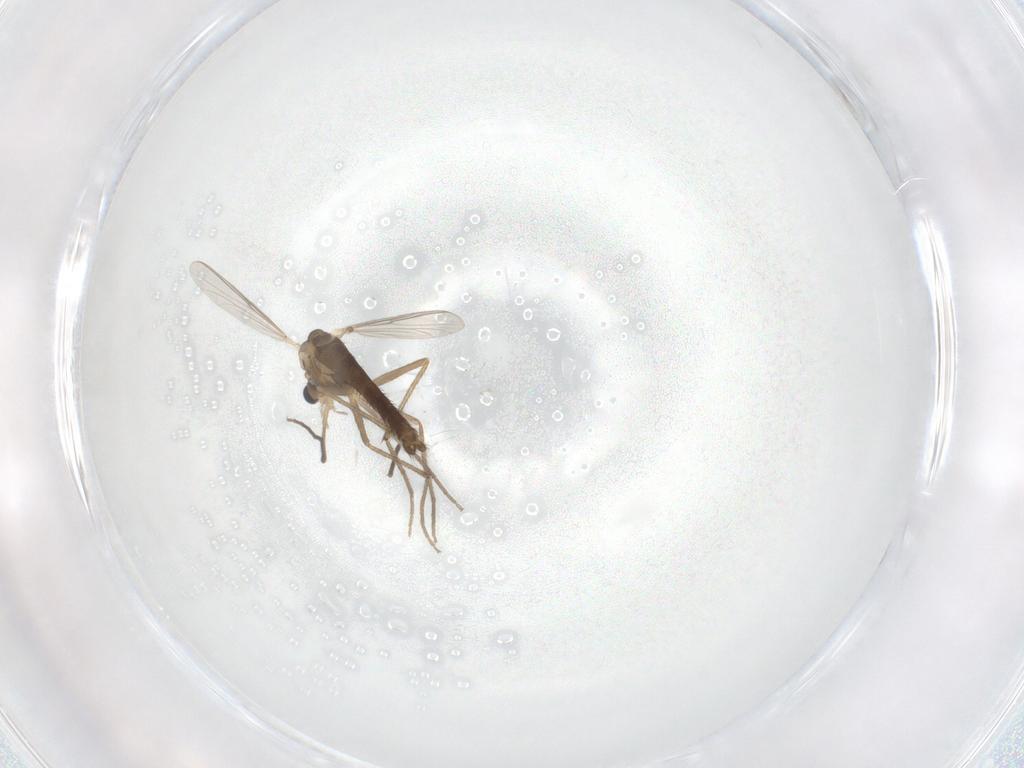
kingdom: Animalia
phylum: Arthropoda
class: Insecta
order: Diptera
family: Chironomidae
